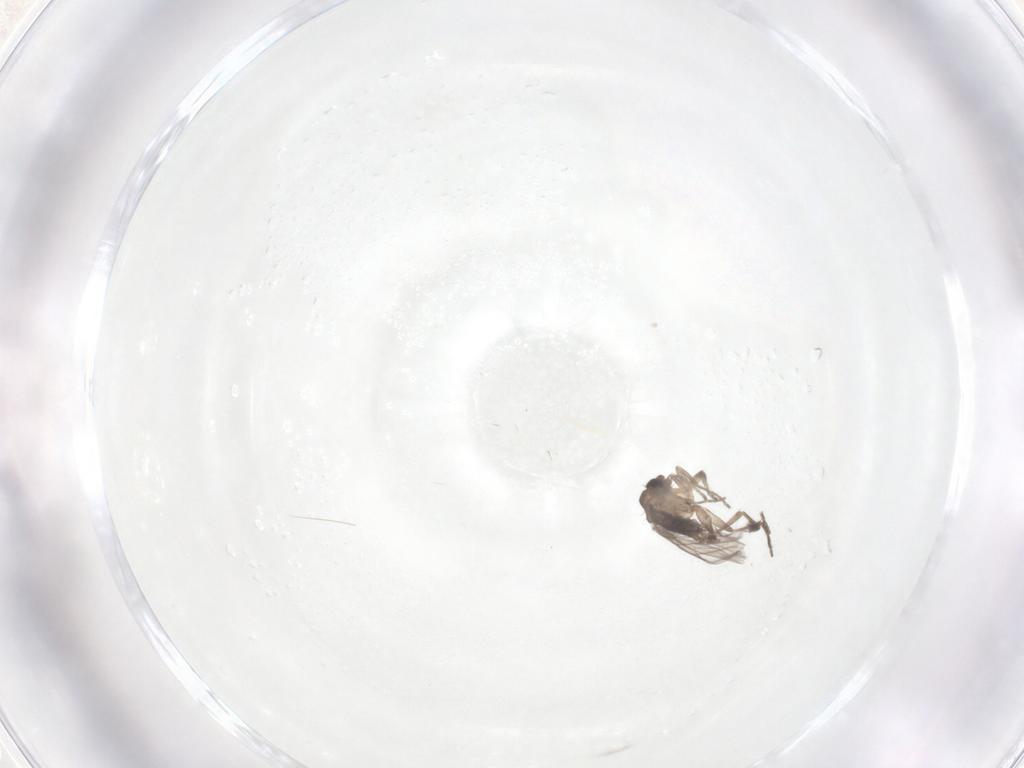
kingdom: Animalia
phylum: Arthropoda
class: Insecta
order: Diptera
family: Phoridae
